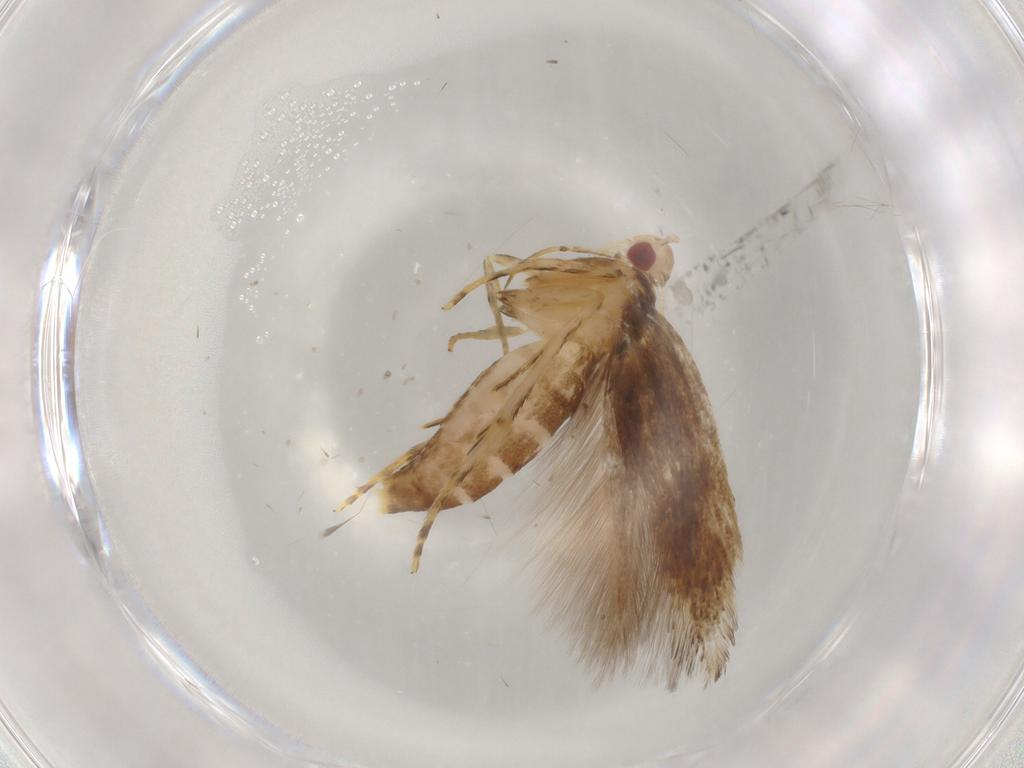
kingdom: Animalia
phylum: Arthropoda
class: Insecta
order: Lepidoptera
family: Cosmopterigidae
